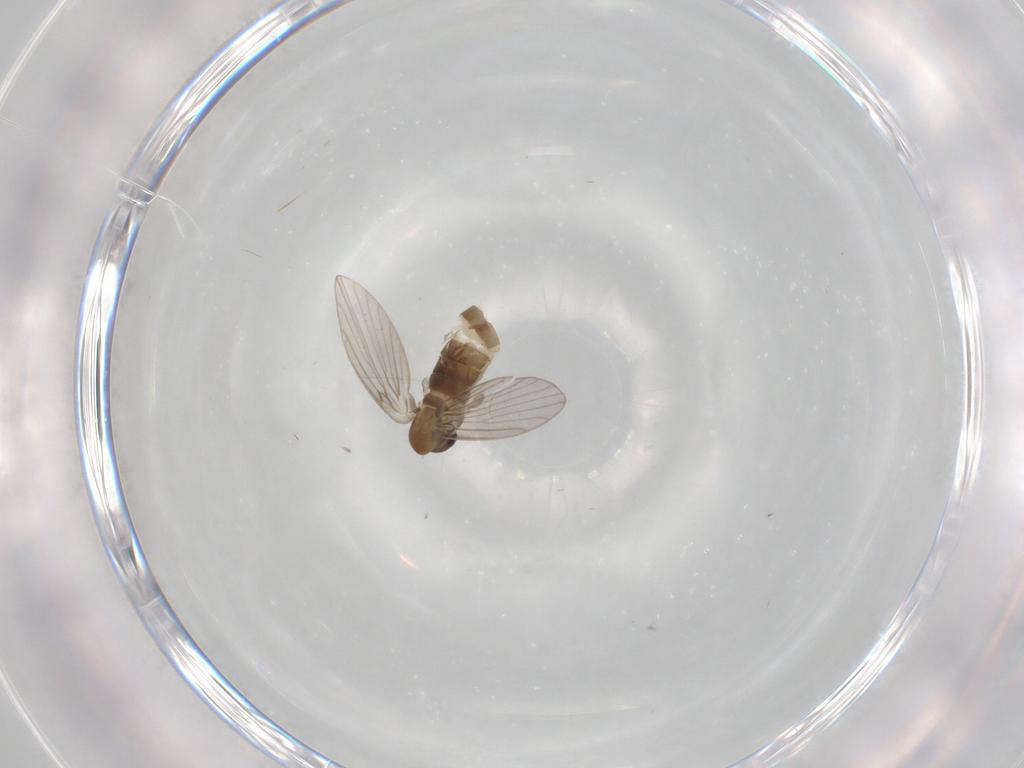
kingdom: Animalia
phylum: Arthropoda
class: Insecta
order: Diptera
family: Psychodidae
